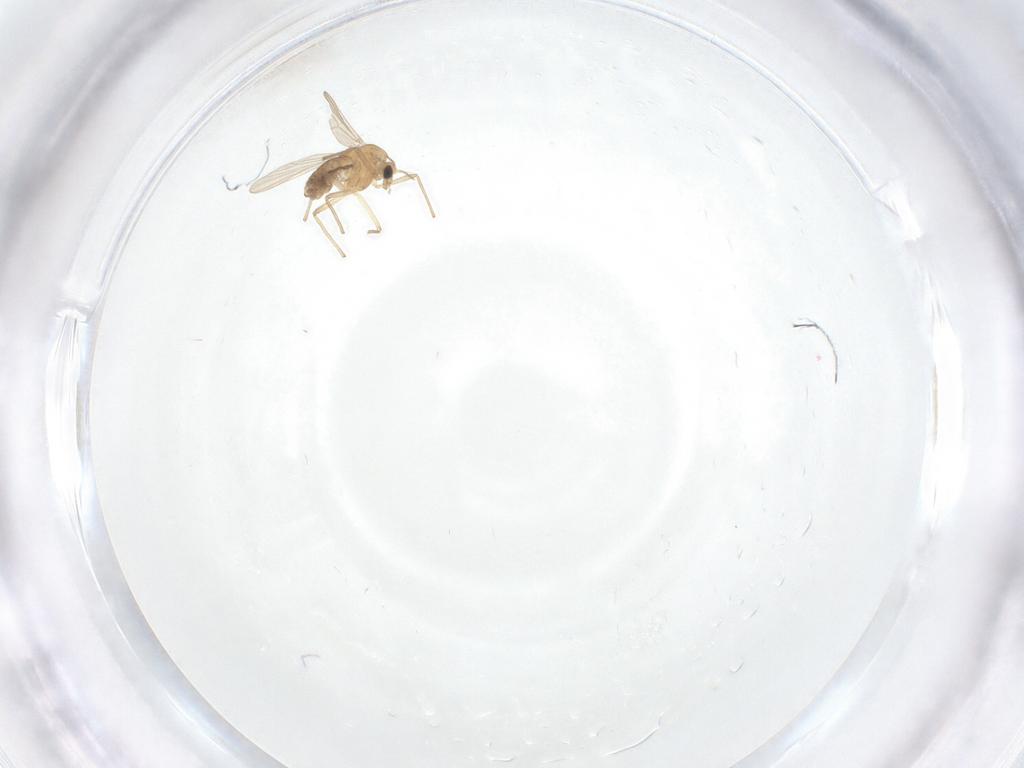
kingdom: Animalia
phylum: Arthropoda
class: Insecta
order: Diptera
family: Chironomidae
